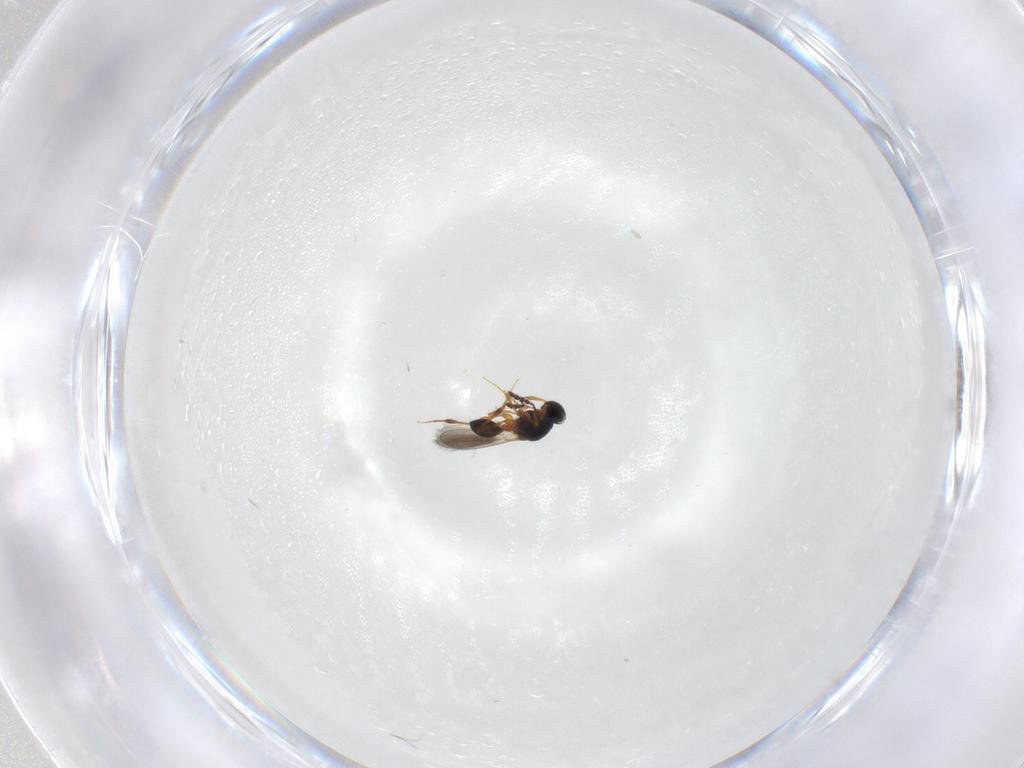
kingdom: Animalia
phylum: Arthropoda
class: Insecta
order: Hymenoptera
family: Platygastridae
